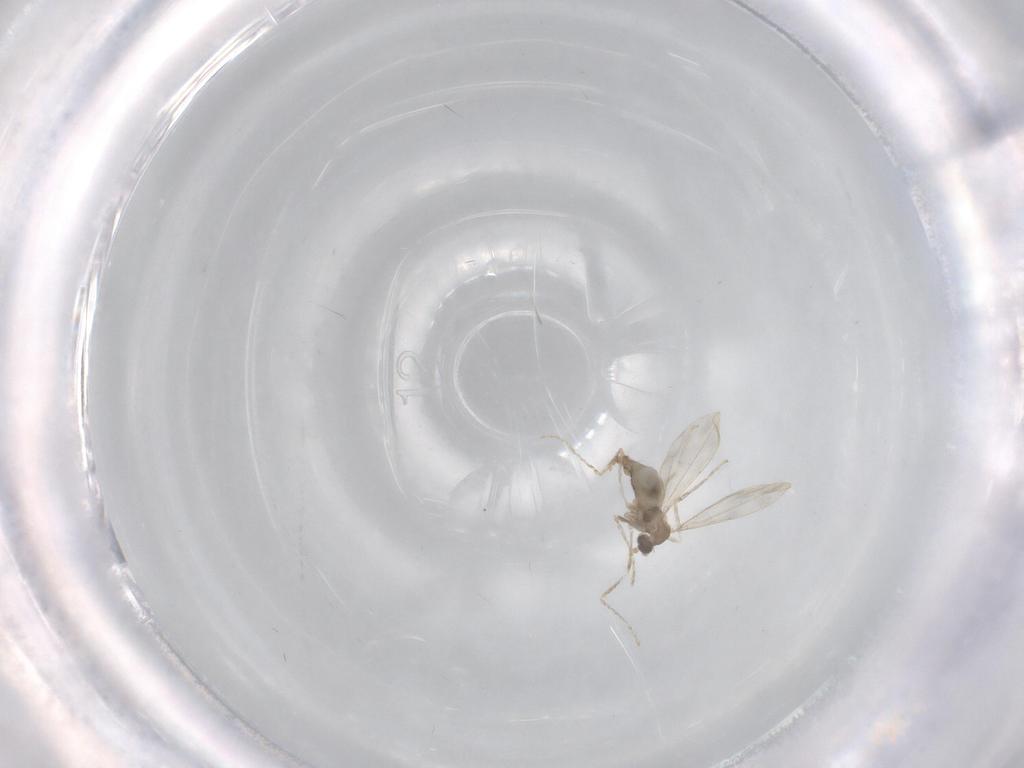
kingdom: Animalia
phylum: Arthropoda
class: Insecta
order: Diptera
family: Cecidomyiidae
